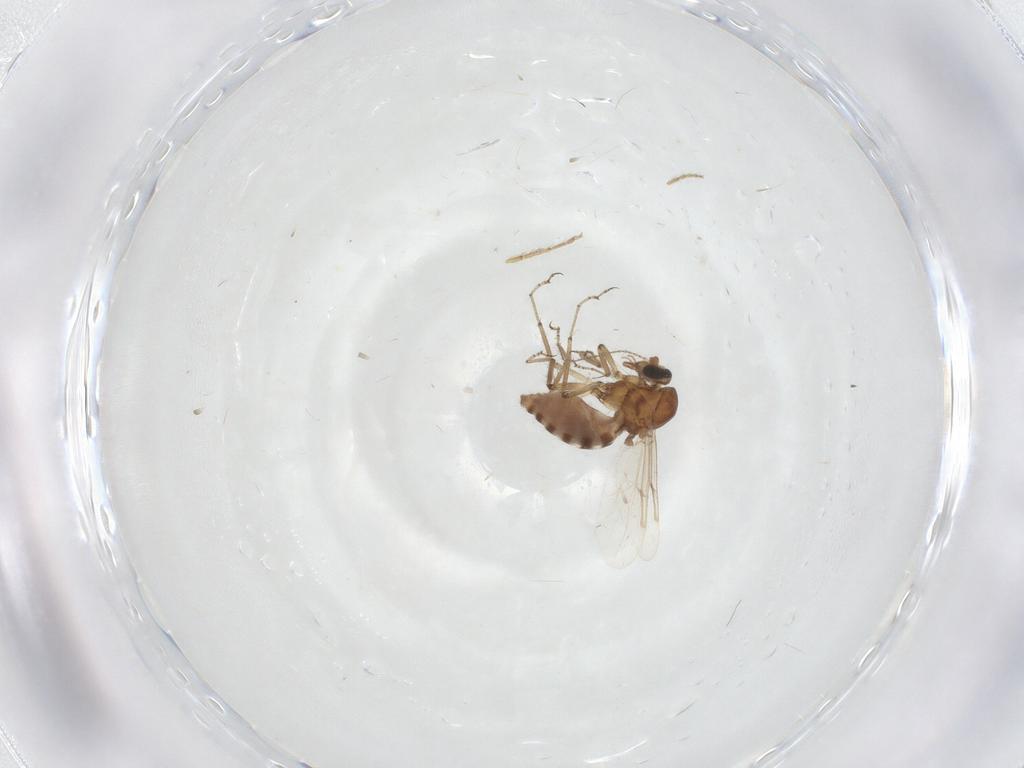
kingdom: Animalia
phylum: Arthropoda
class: Insecta
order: Diptera
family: Ceratopogonidae
